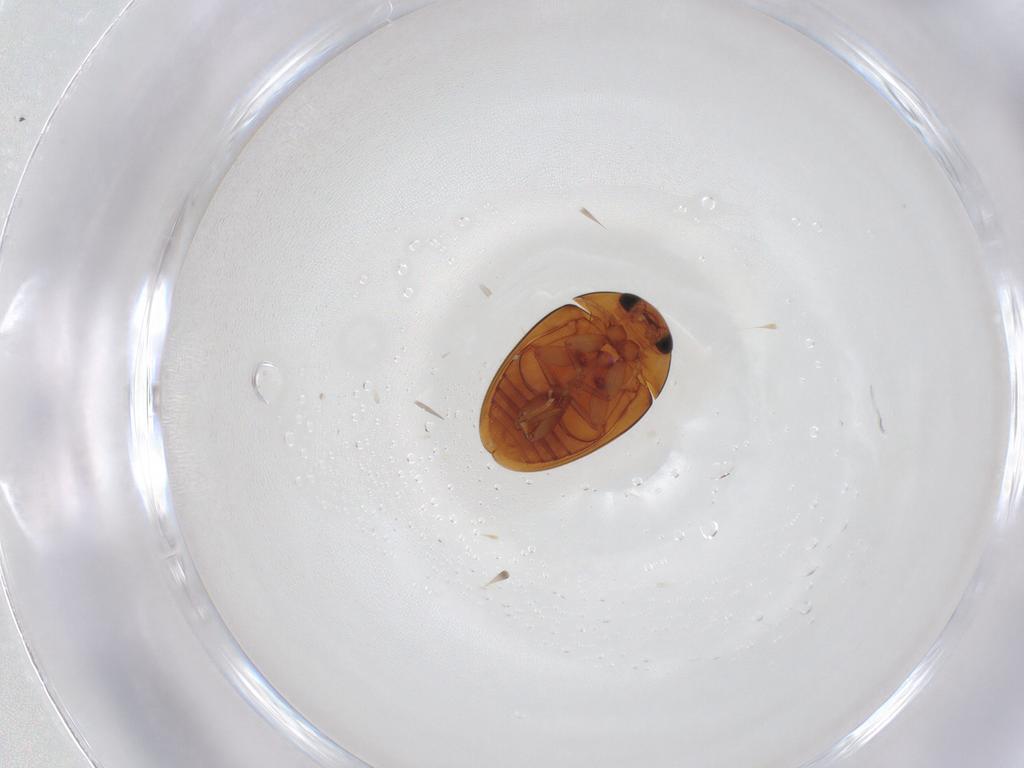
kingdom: Animalia
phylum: Arthropoda
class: Insecta
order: Coleoptera
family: Phalacridae
